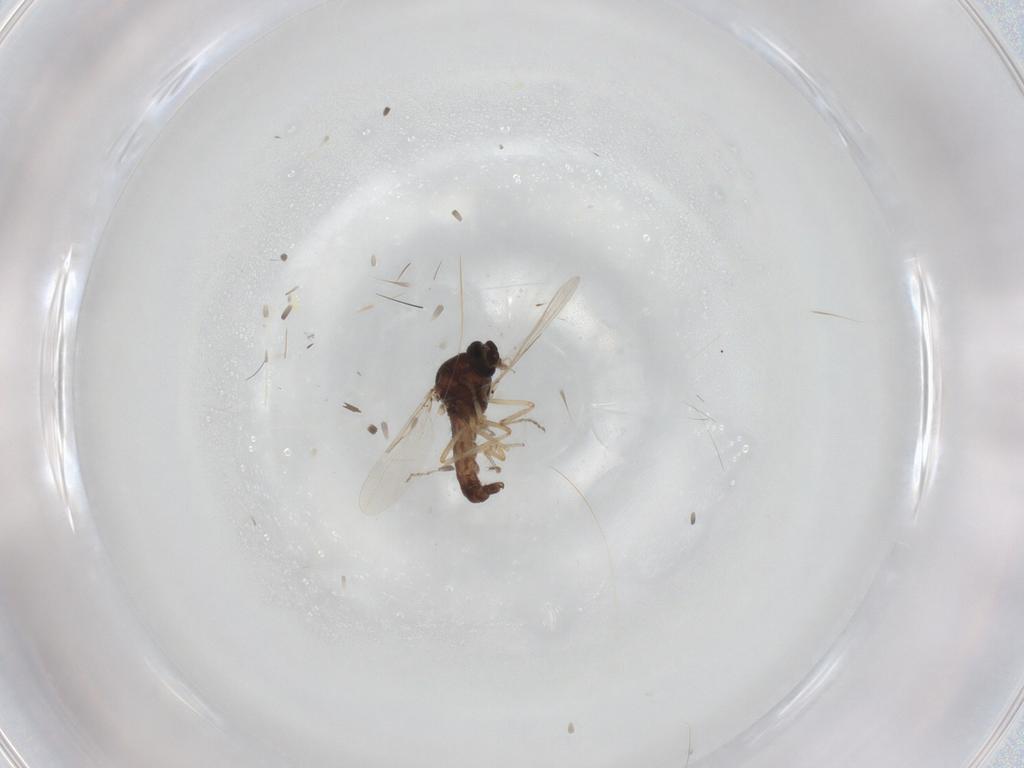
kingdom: Animalia
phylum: Arthropoda
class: Insecta
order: Diptera
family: Ceratopogonidae
